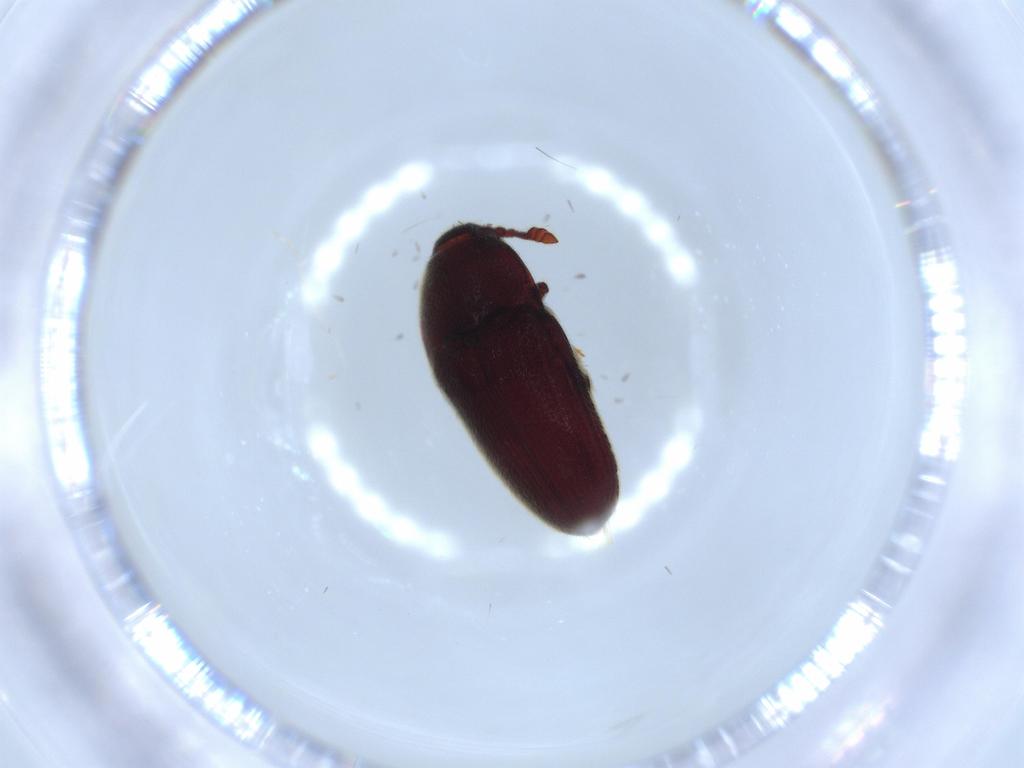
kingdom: Animalia
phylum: Arthropoda
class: Insecta
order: Coleoptera
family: Throscidae
